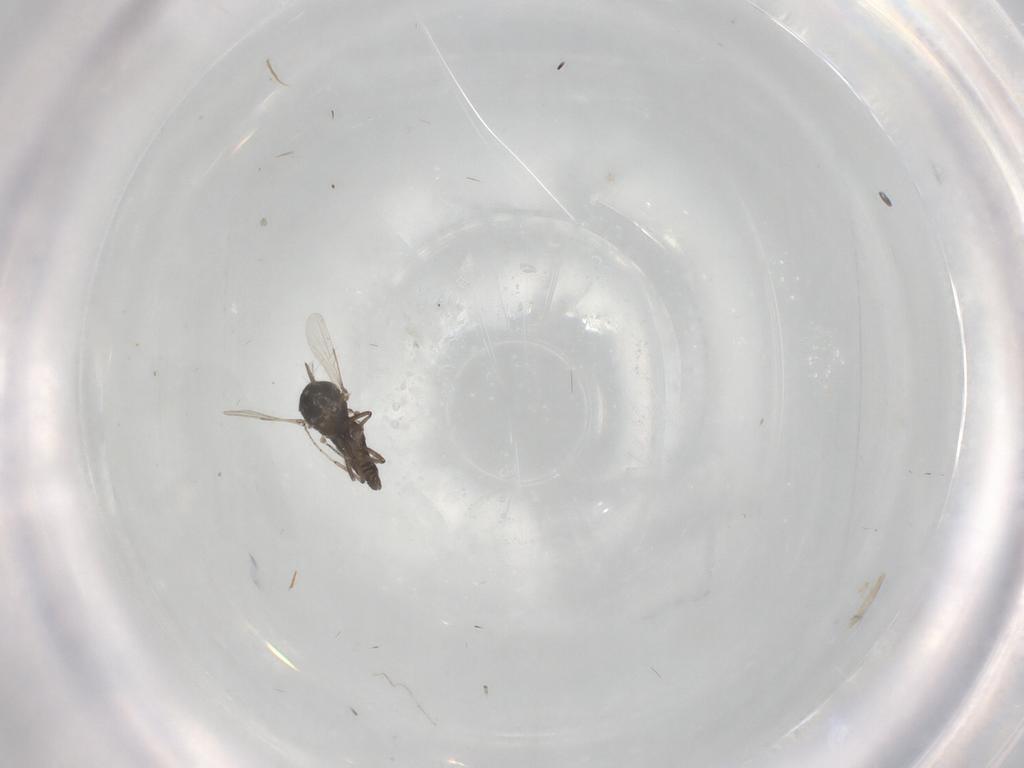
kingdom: Animalia
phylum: Arthropoda
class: Insecta
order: Diptera
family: Ceratopogonidae
